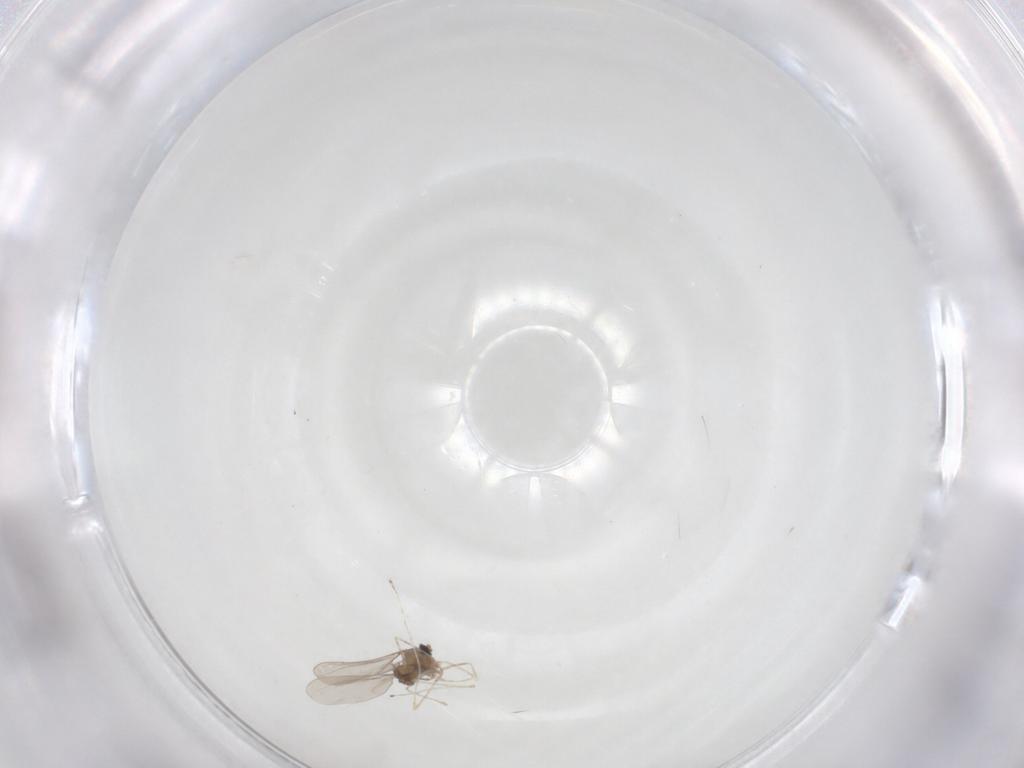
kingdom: Animalia
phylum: Arthropoda
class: Insecta
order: Diptera
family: Cecidomyiidae
